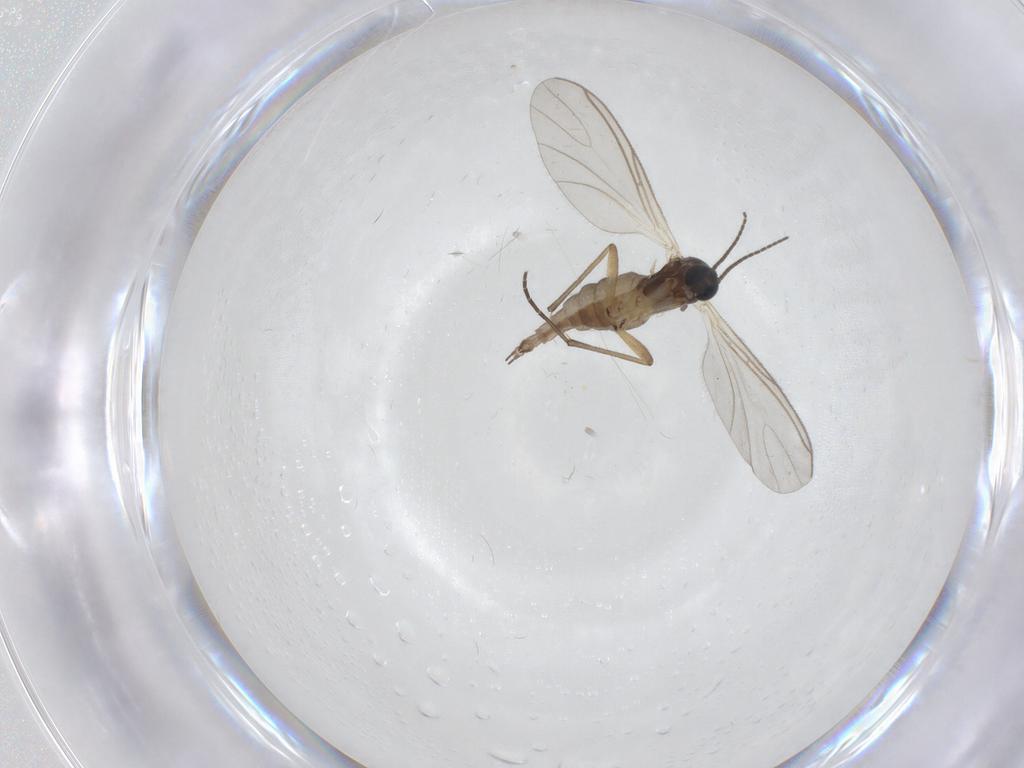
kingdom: Animalia
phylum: Arthropoda
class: Insecta
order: Diptera
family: Sciaridae
